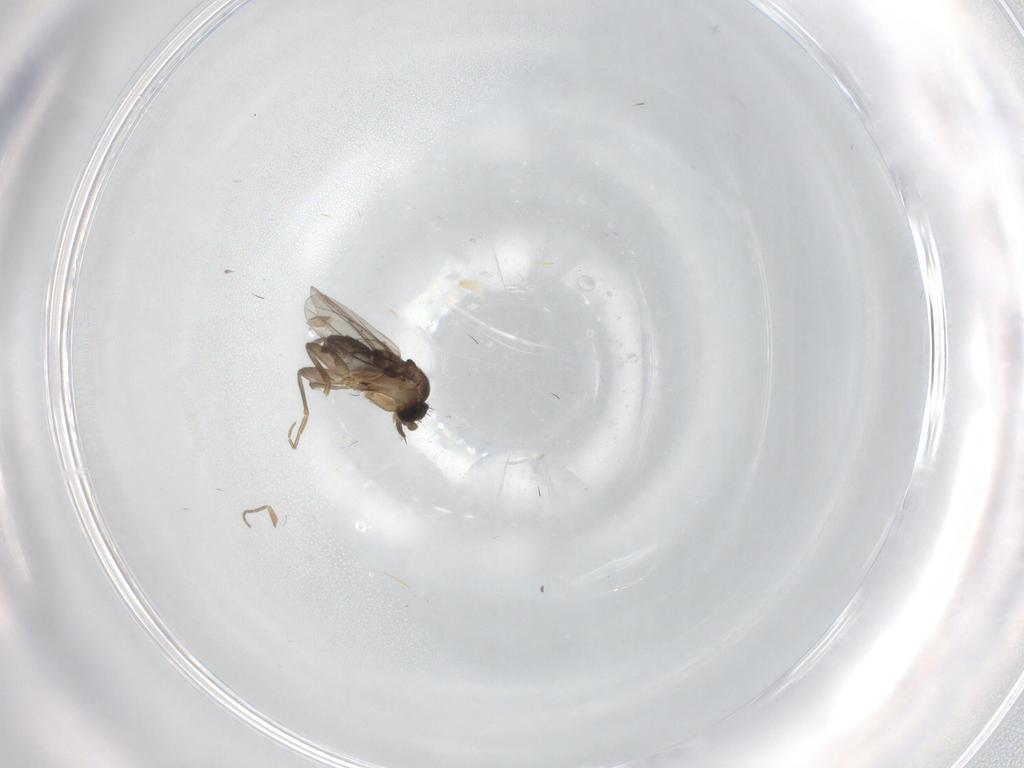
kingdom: Animalia
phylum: Arthropoda
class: Insecta
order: Diptera
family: Phoridae
